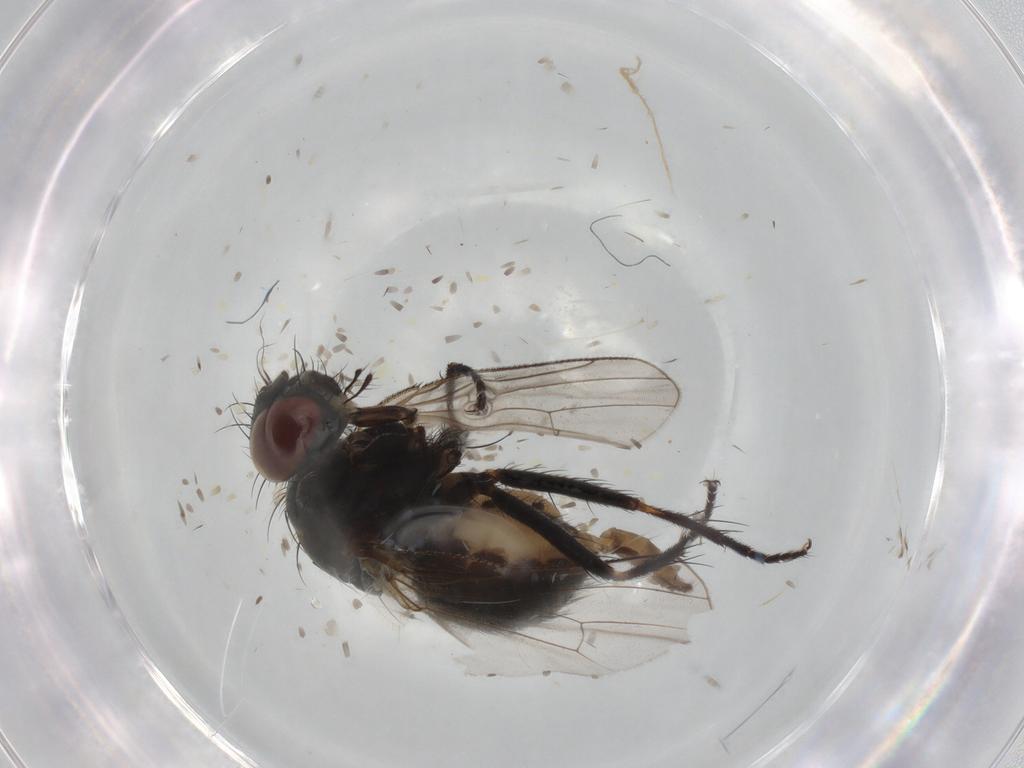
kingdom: Animalia
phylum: Arthropoda
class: Insecta
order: Diptera
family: Muscidae
